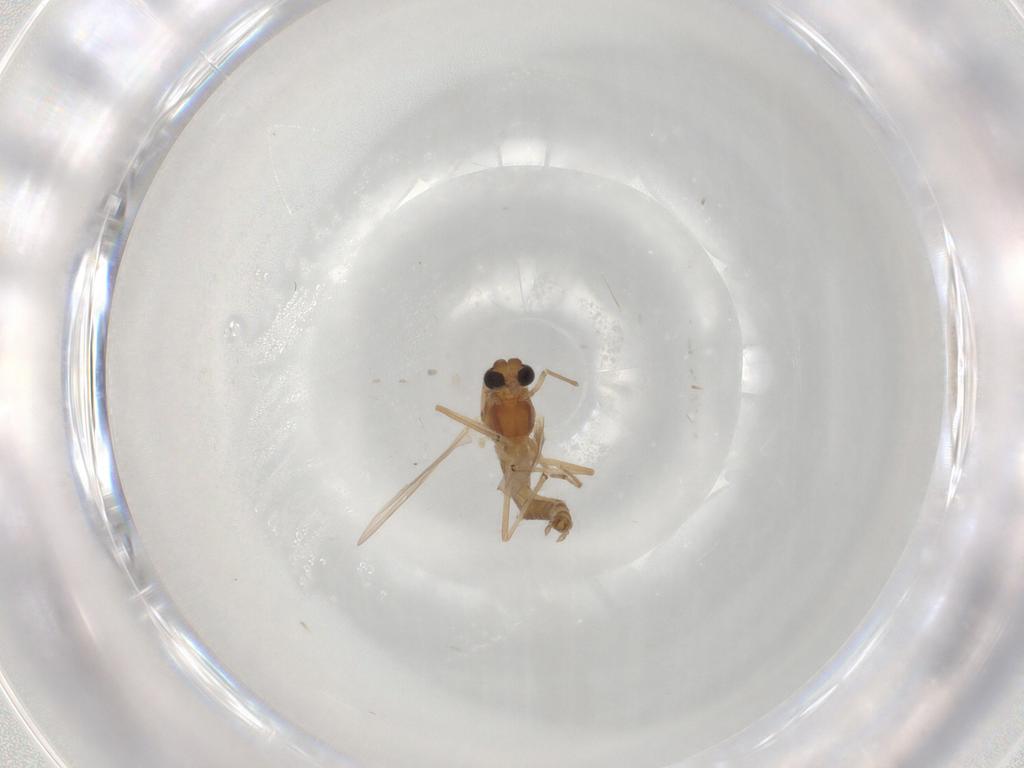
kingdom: Animalia
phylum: Arthropoda
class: Insecta
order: Diptera
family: Chironomidae
